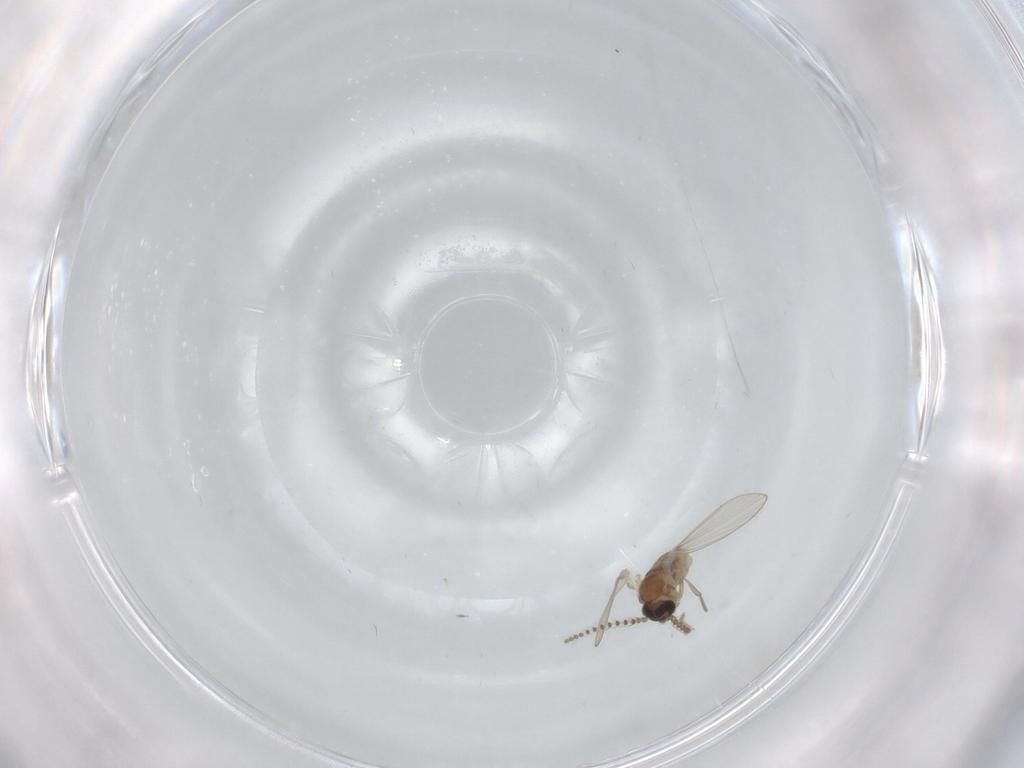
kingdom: Animalia
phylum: Arthropoda
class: Insecta
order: Diptera
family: Psychodidae
